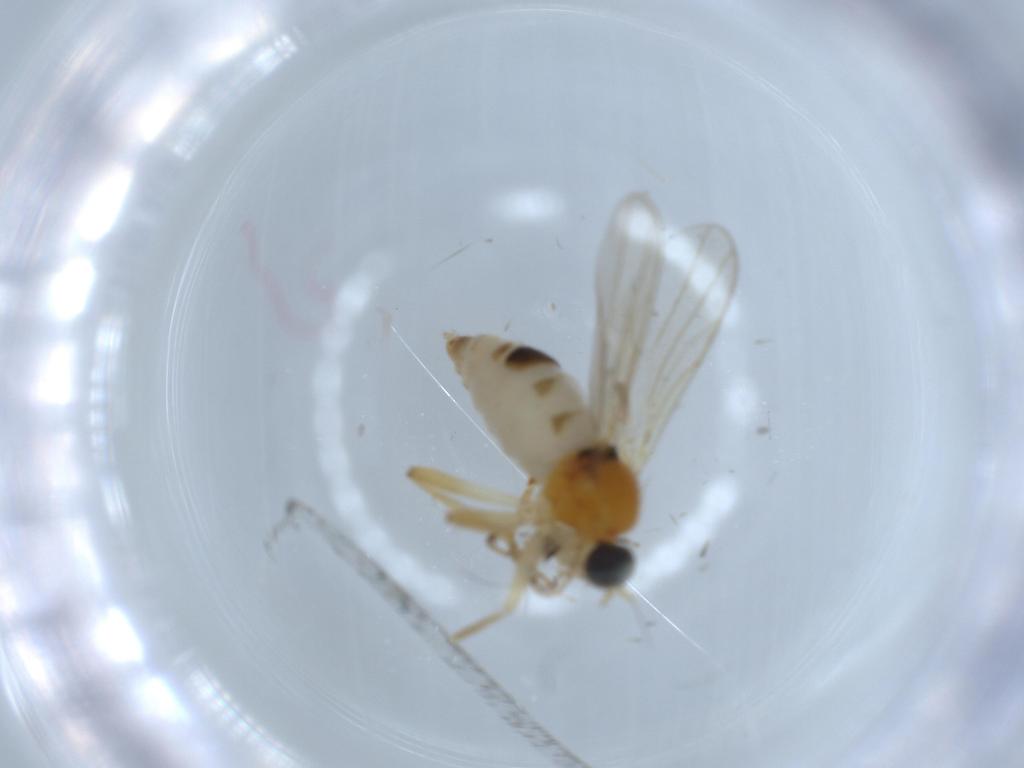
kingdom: Animalia
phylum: Arthropoda
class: Insecta
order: Diptera
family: Hybotidae
